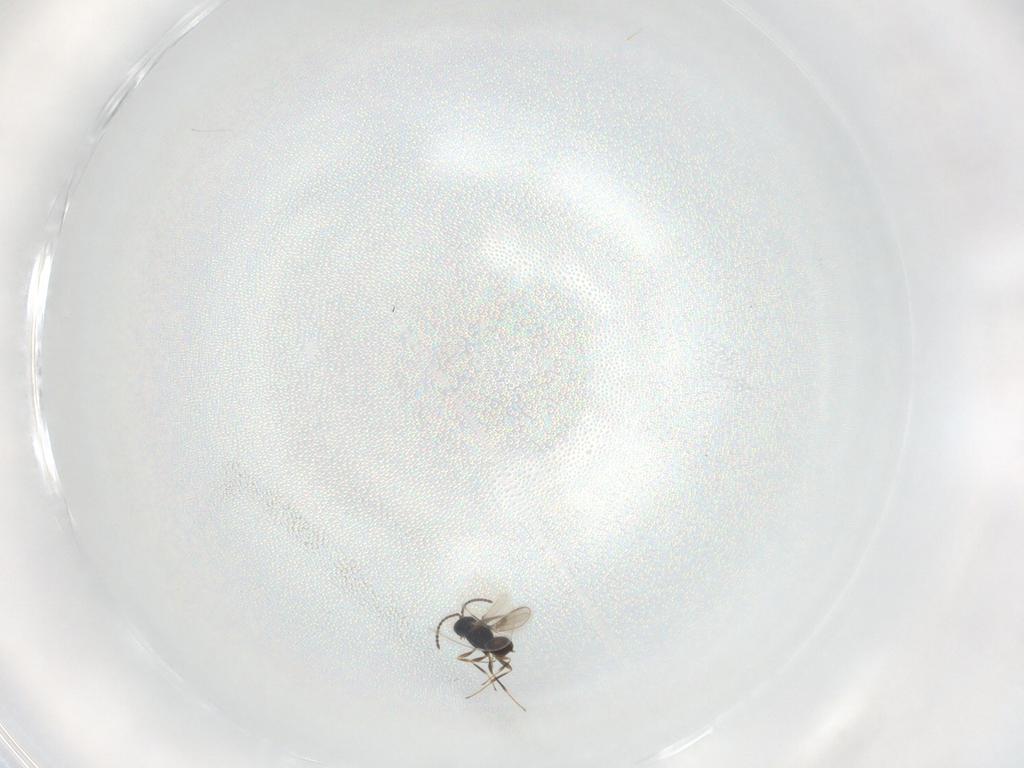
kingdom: Animalia
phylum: Arthropoda
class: Insecta
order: Hymenoptera
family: Scelionidae
